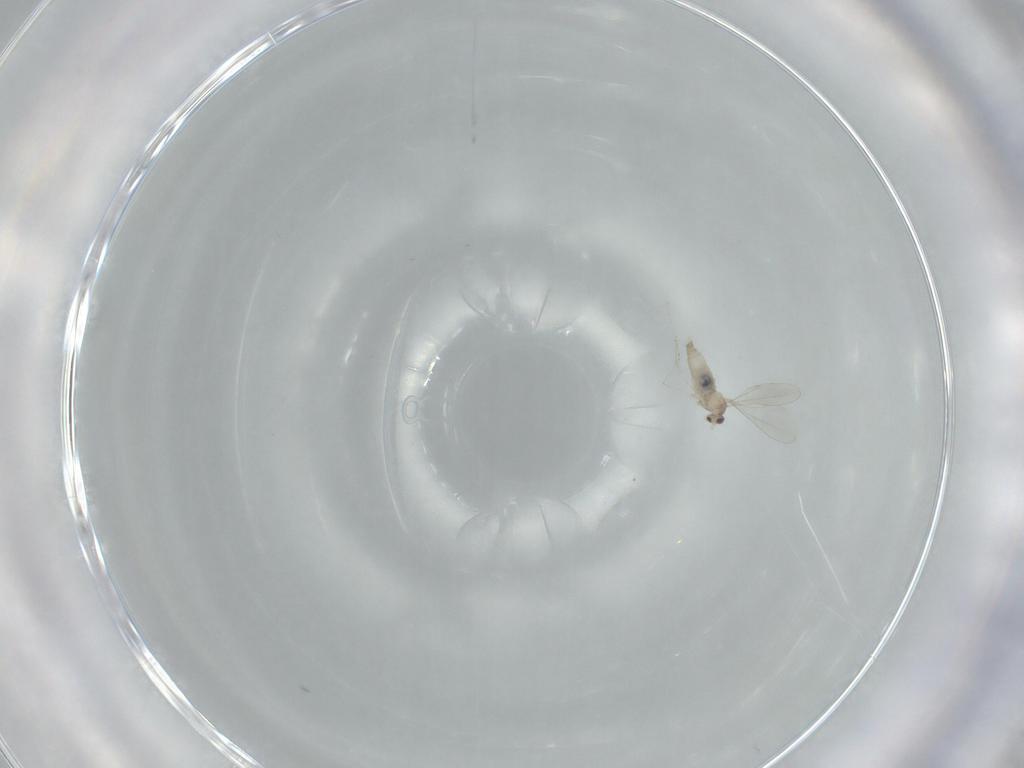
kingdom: Animalia
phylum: Arthropoda
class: Insecta
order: Diptera
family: Cecidomyiidae
